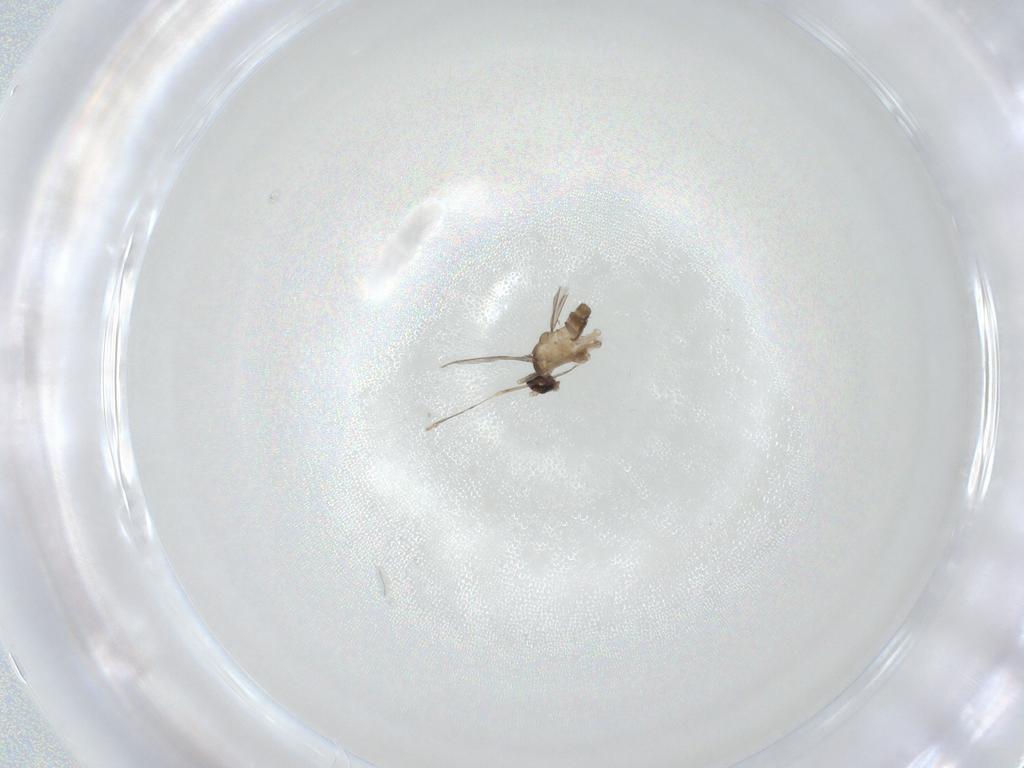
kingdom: Animalia
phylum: Arthropoda
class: Insecta
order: Diptera
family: Cecidomyiidae
